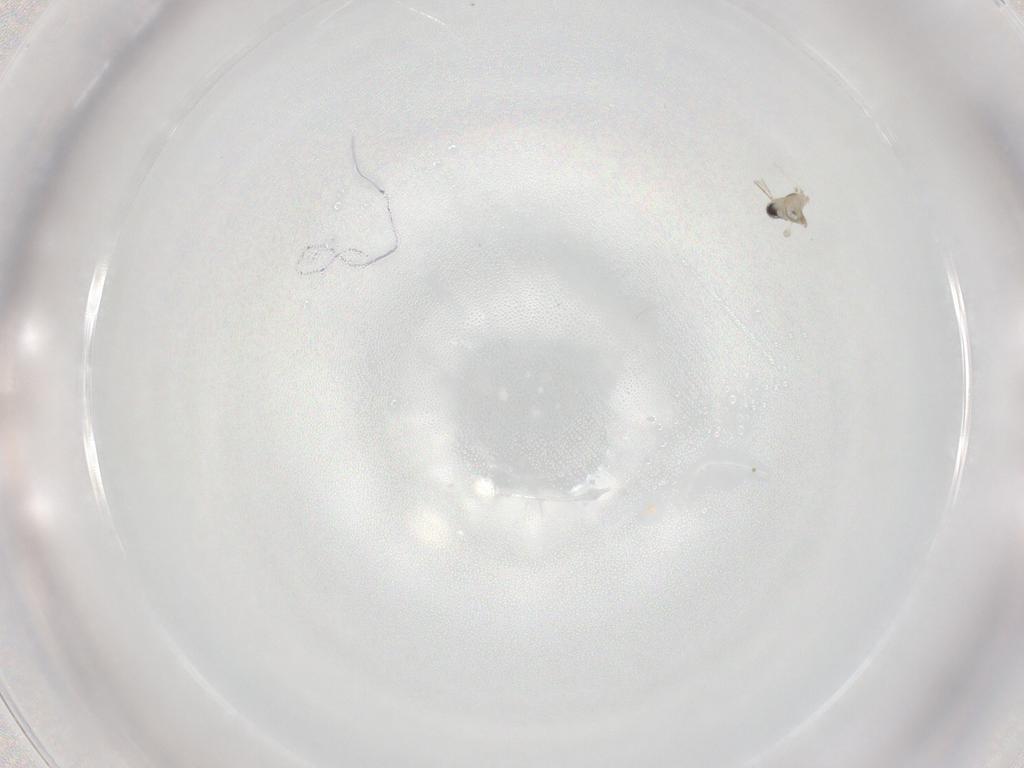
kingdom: Animalia
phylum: Arthropoda
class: Insecta
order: Diptera
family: Cecidomyiidae
